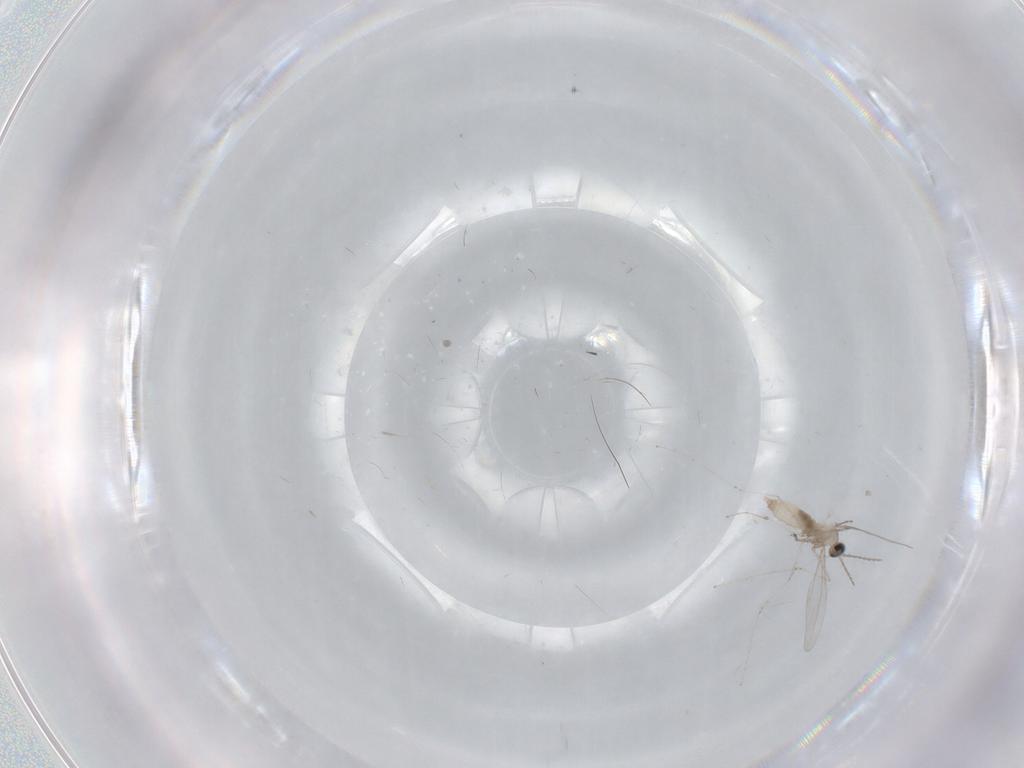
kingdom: Animalia
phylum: Arthropoda
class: Insecta
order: Diptera
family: Cecidomyiidae
